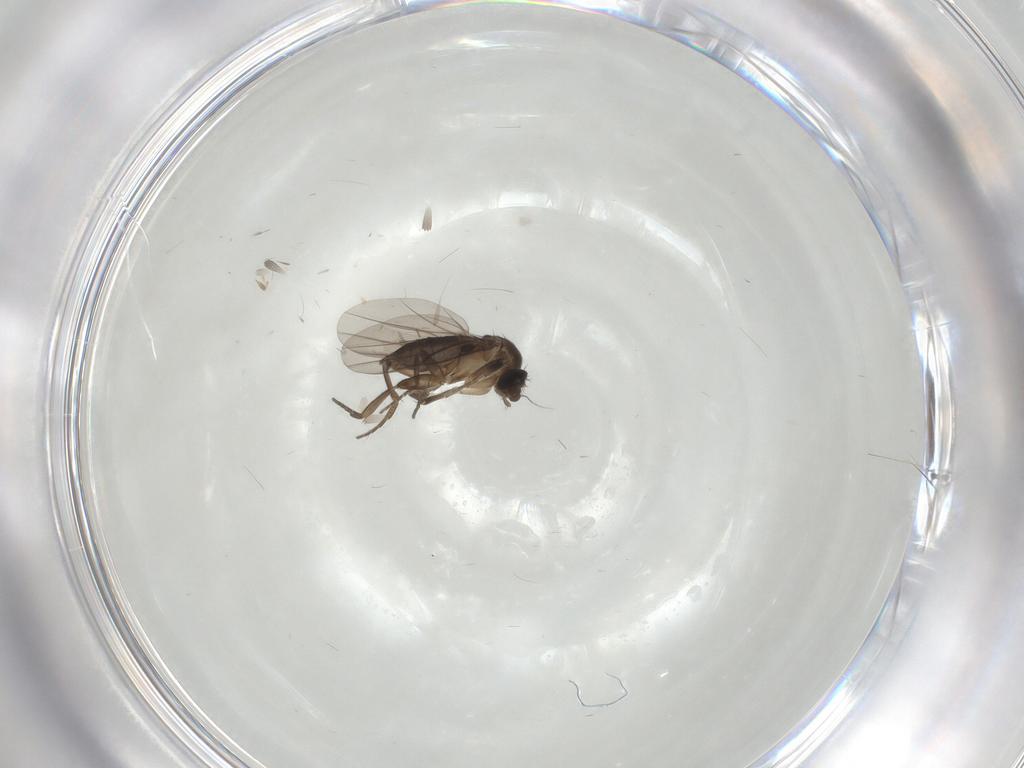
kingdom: Animalia
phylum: Arthropoda
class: Insecta
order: Diptera
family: Phoridae
